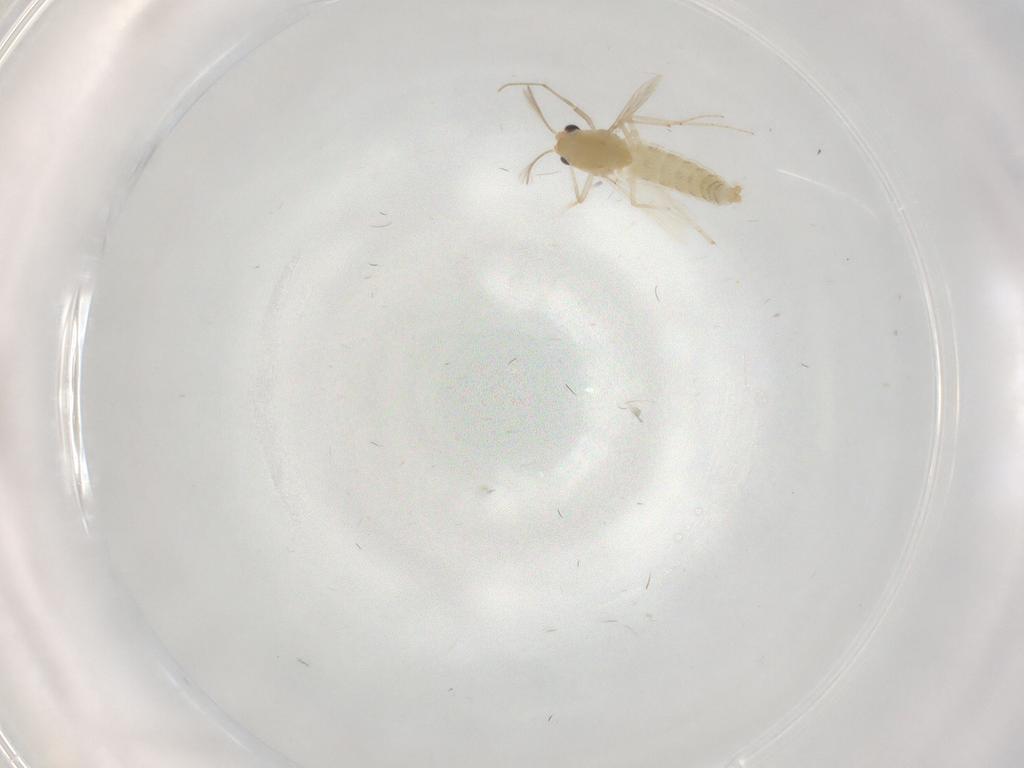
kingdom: Animalia
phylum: Arthropoda
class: Insecta
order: Diptera
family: Chironomidae
